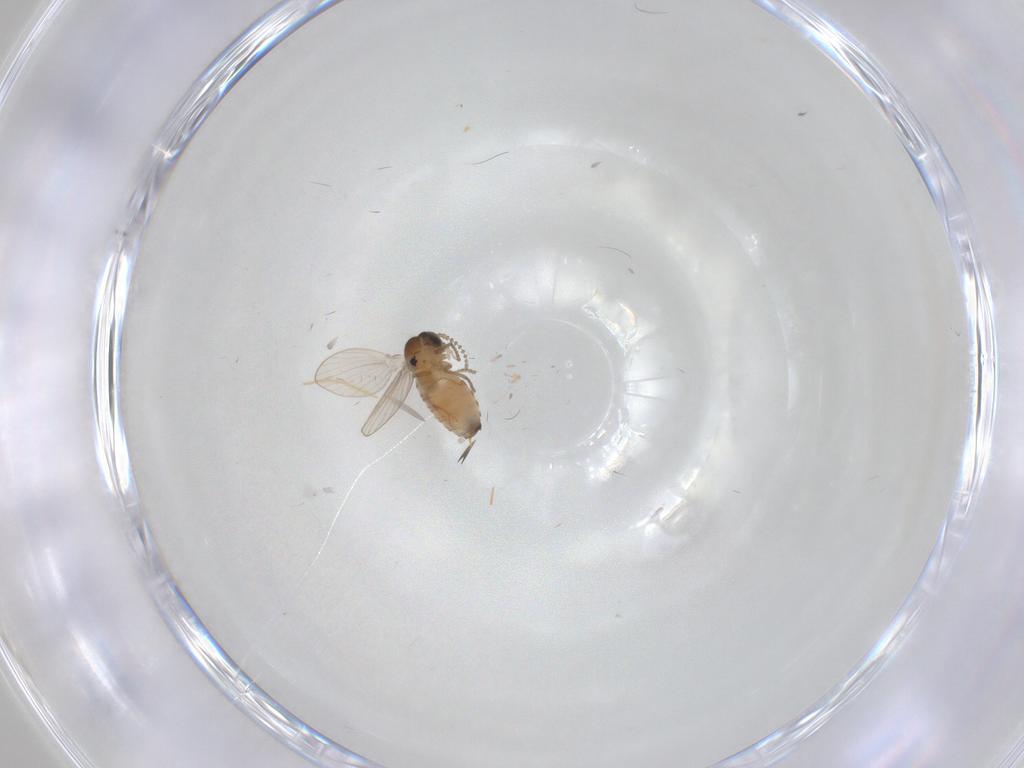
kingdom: Animalia
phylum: Arthropoda
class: Insecta
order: Diptera
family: Psychodidae
